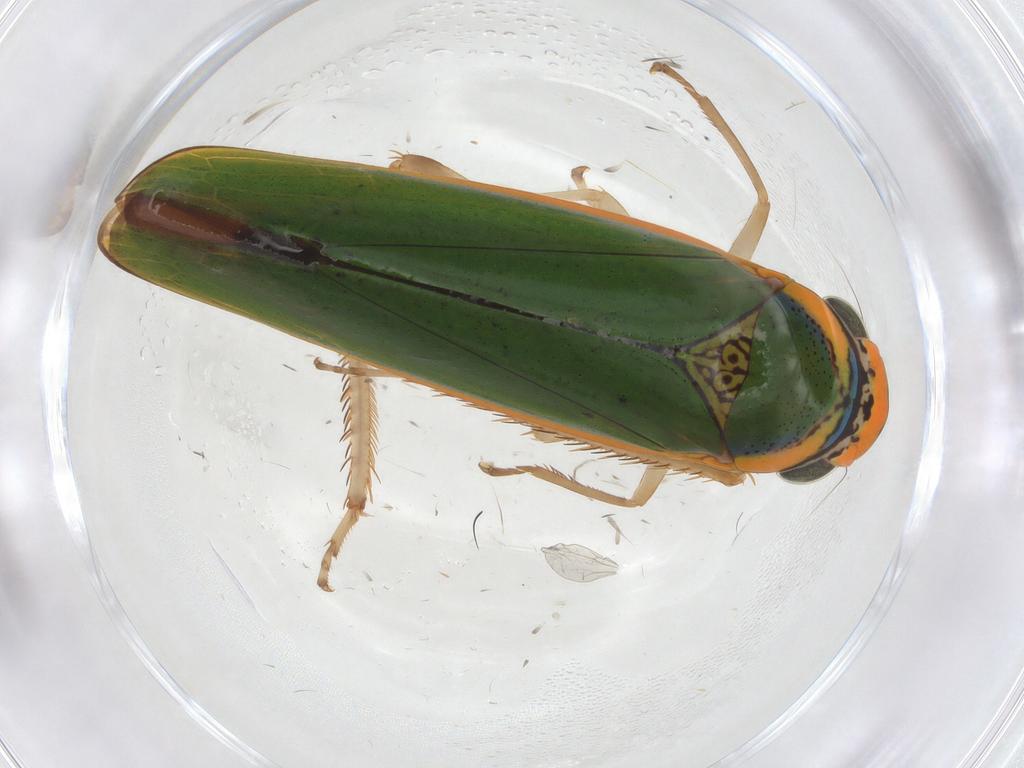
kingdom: Animalia
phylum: Arthropoda
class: Insecta
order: Hemiptera
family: Cicadellidae
